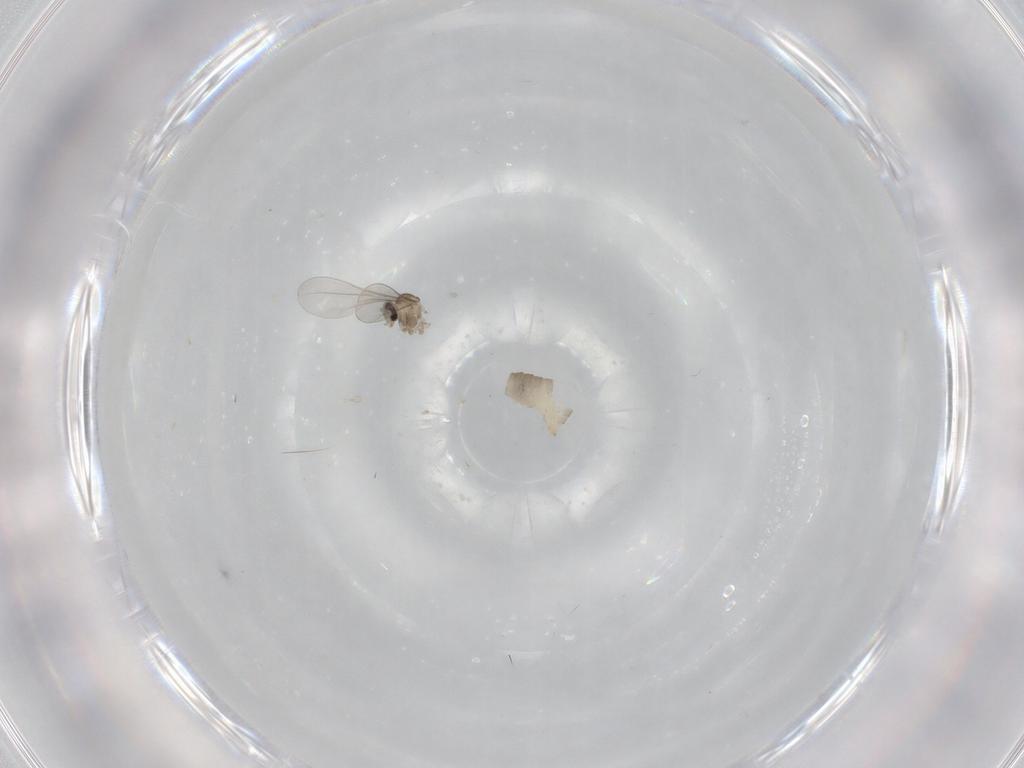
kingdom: Animalia
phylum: Arthropoda
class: Insecta
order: Diptera
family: Cecidomyiidae
